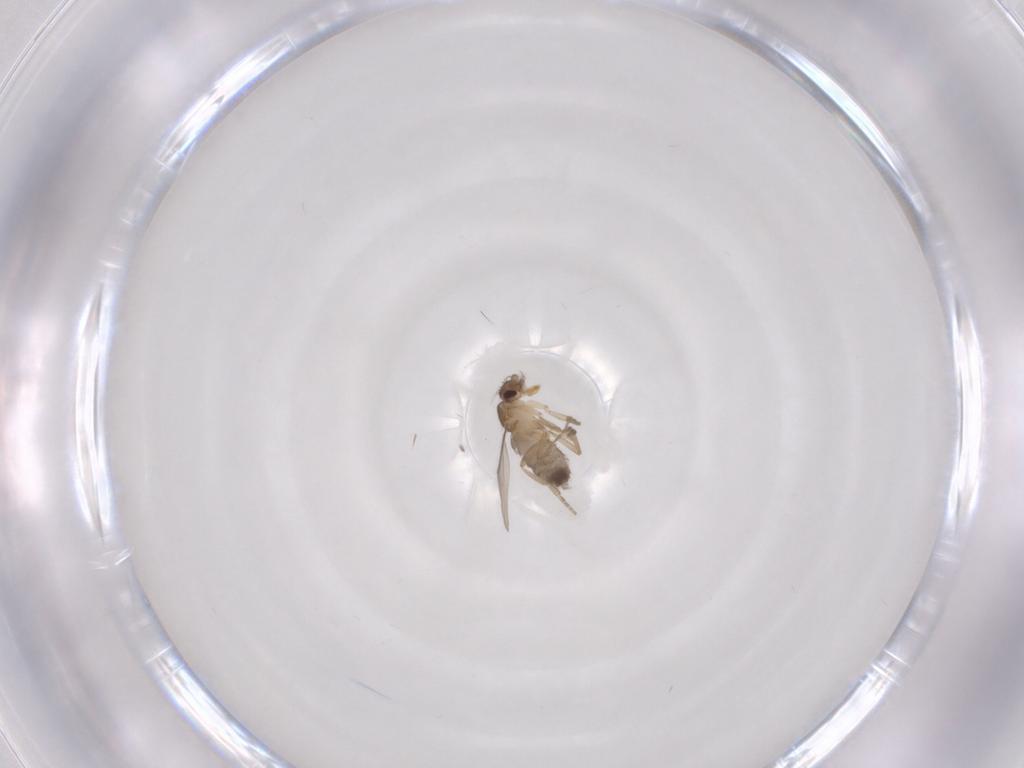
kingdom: Animalia
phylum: Arthropoda
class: Insecta
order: Diptera
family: Phoridae
